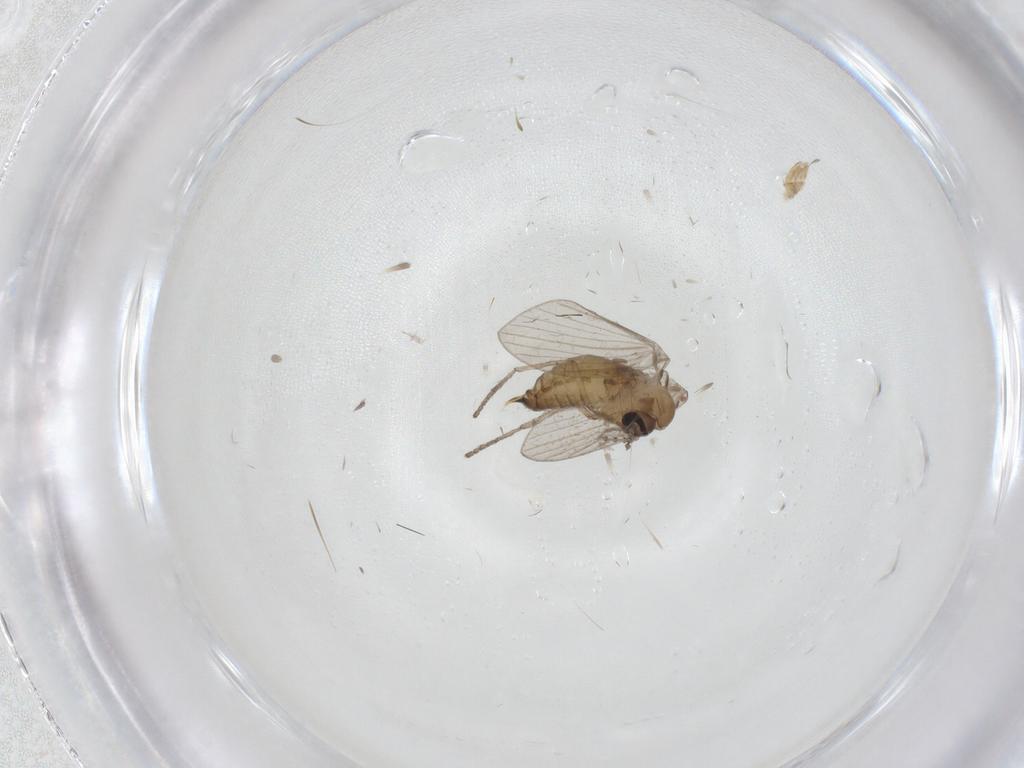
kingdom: Animalia
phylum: Arthropoda
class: Insecta
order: Diptera
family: Psychodidae
